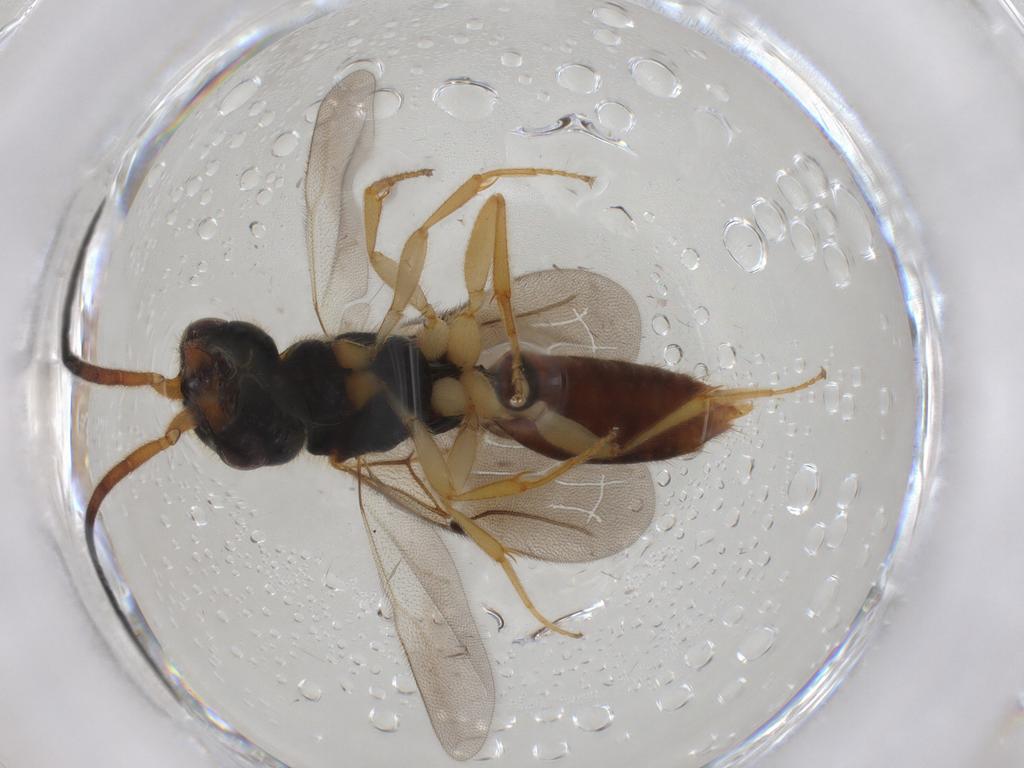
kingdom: Animalia
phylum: Arthropoda
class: Insecta
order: Hymenoptera
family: Bethylidae
